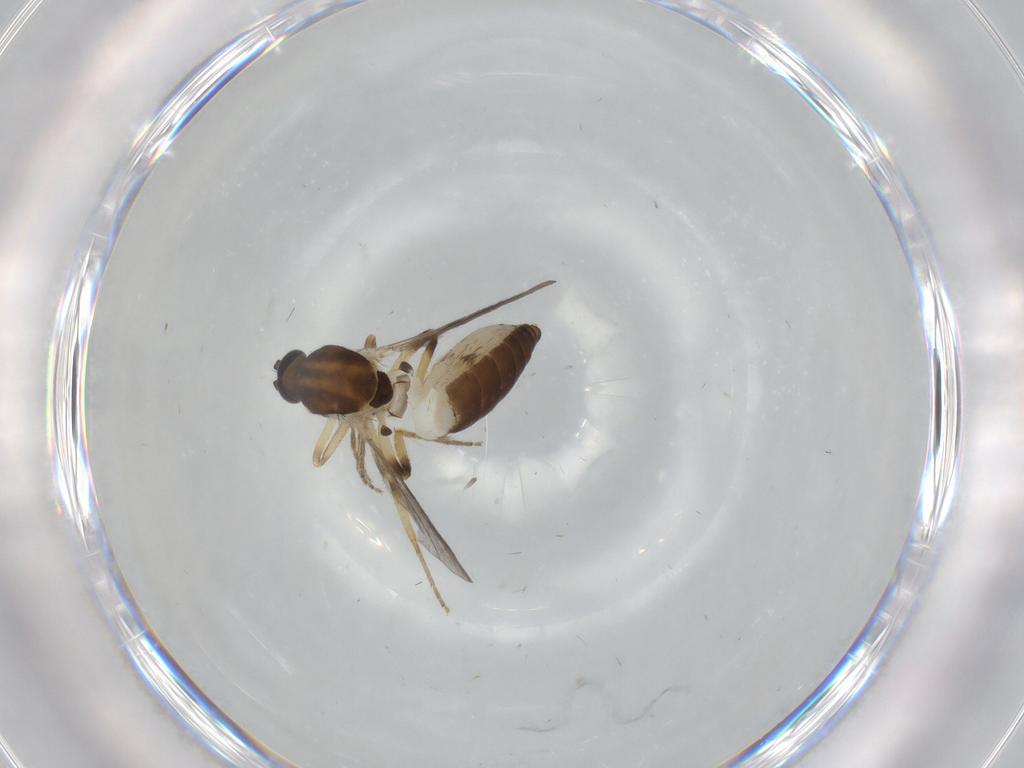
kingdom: Animalia
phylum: Arthropoda
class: Insecta
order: Diptera
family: Ceratopogonidae
